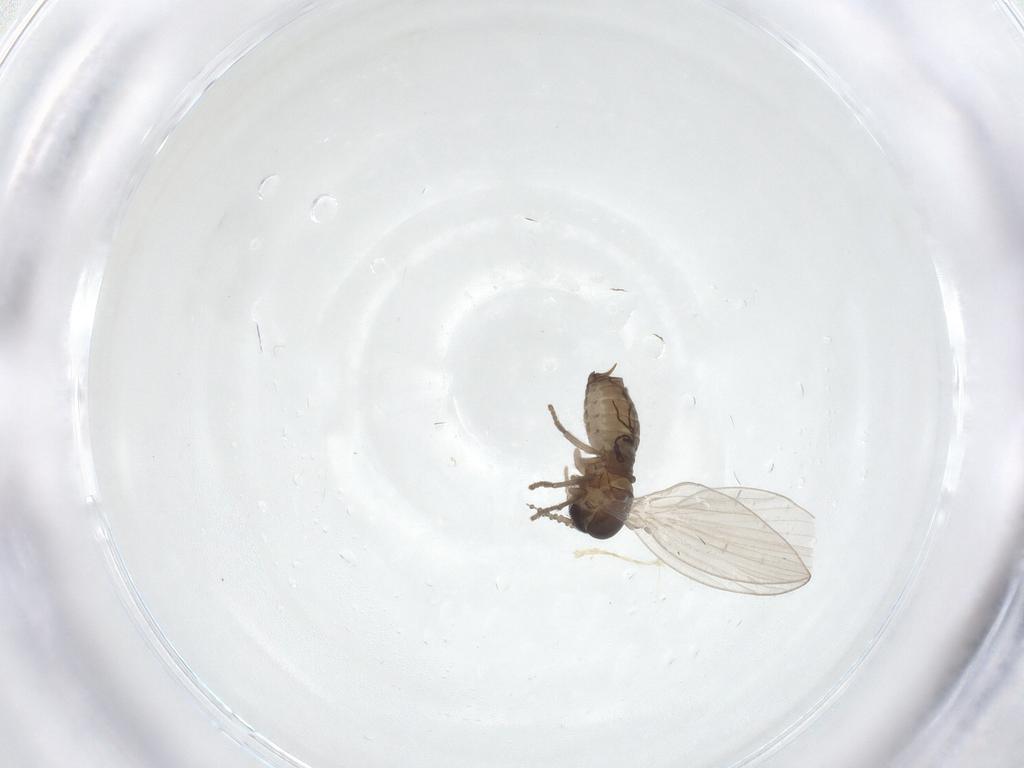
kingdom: Animalia
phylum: Arthropoda
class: Insecta
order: Diptera
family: Psychodidae
